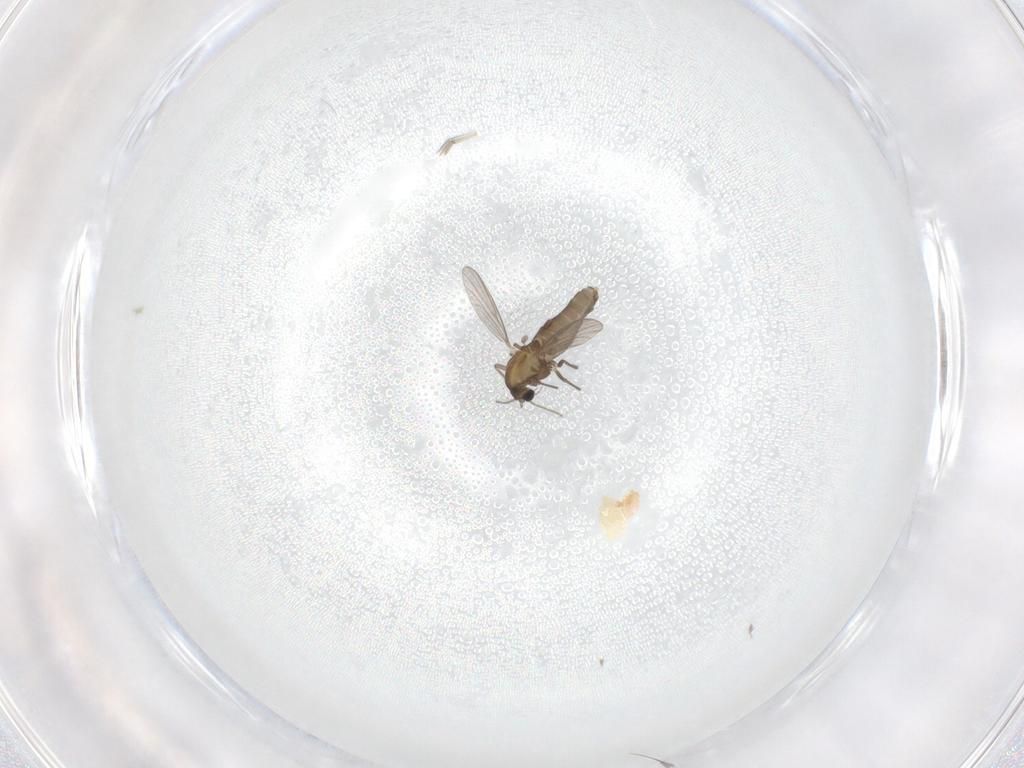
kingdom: Animalia
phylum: Arthropoda
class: Insecta
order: Diptera
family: Chironomidae
